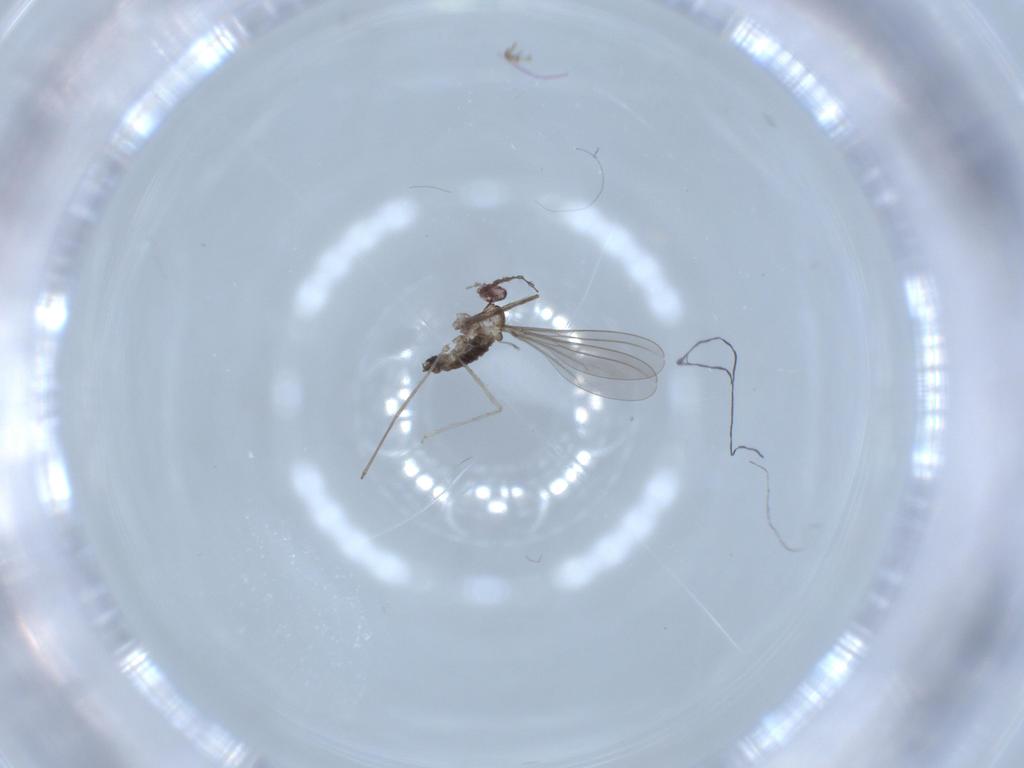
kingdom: Animalia
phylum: Arthropoda
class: Insecta
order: Diptera
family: Cecidomyiidae
